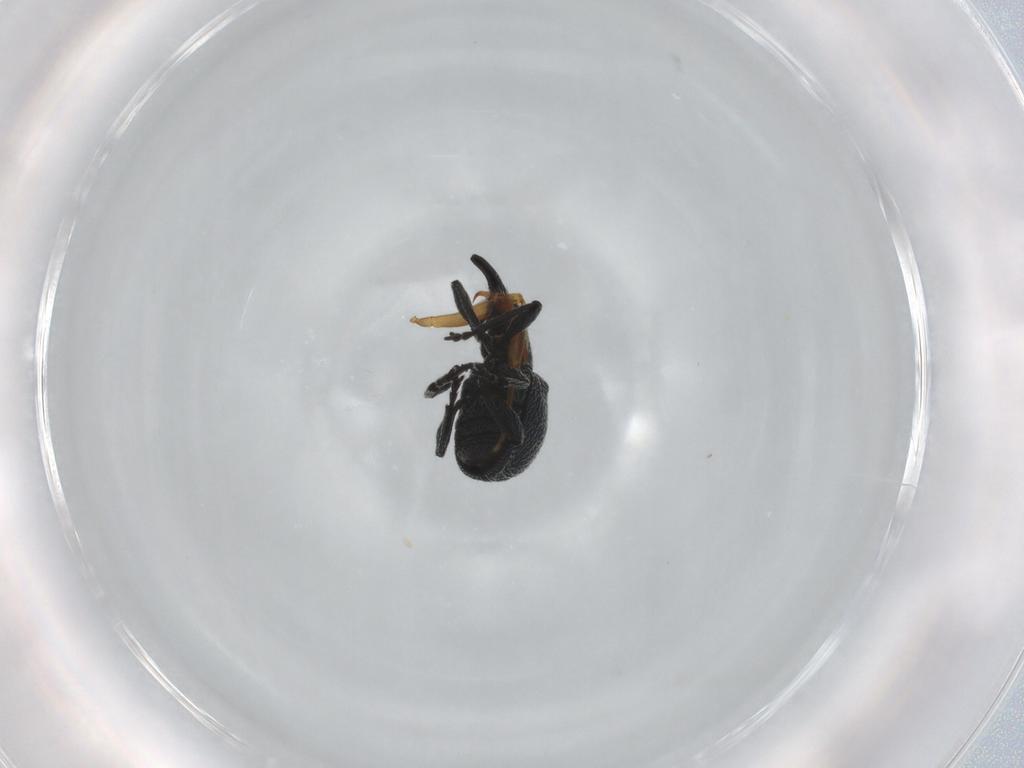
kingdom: Animalia
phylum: Arthropoda
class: Insecta
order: Coleoptera
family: Brentidae
